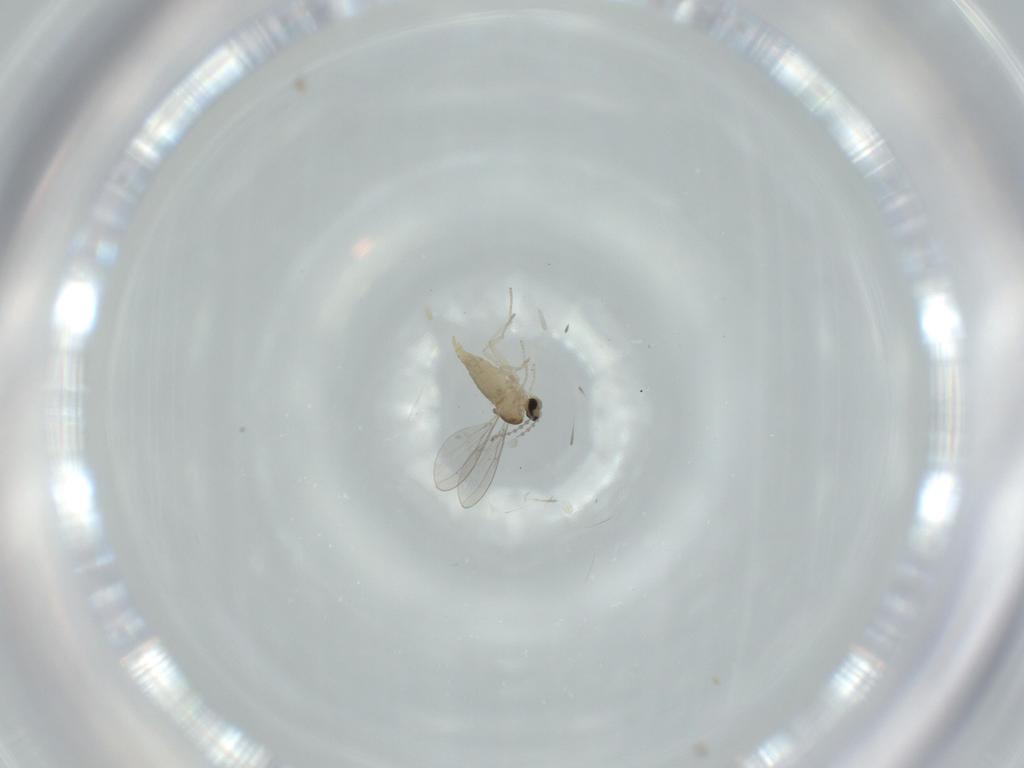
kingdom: Animalia
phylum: Arthropoda
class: Insecta
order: Diptera
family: Cecidomyiidae
